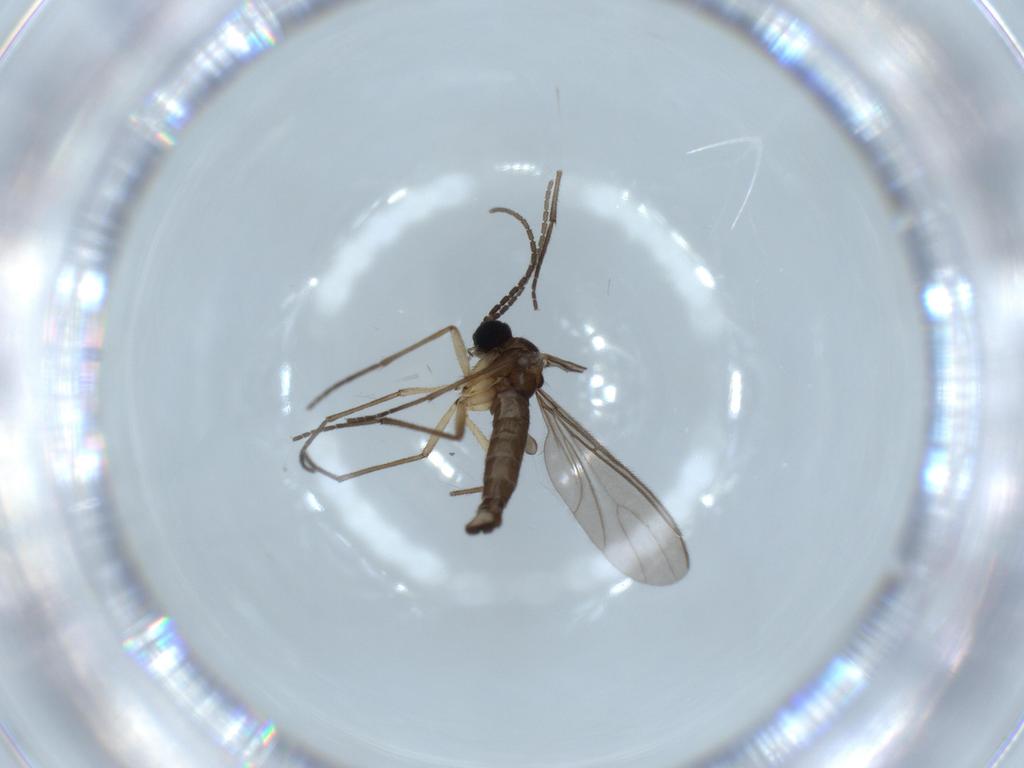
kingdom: Animalia
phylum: Arthropoda
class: Insecta
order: Diptera
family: Sciaridae
